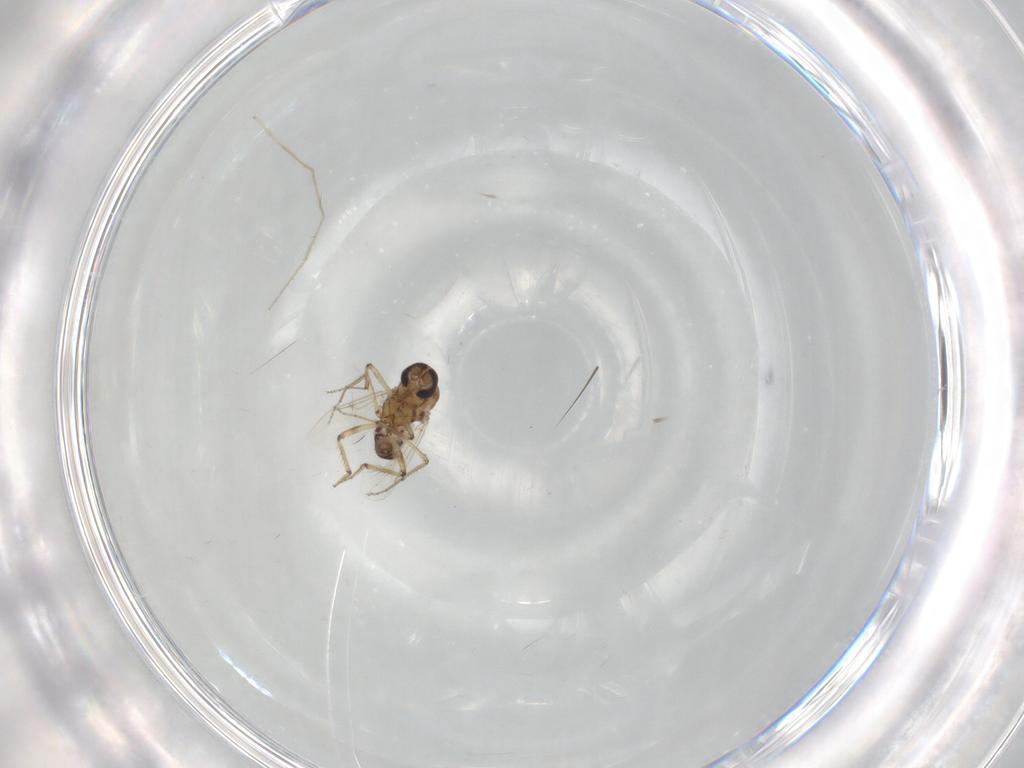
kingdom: Animalia
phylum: Arthropoda
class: Insecta
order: Diptera
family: Ceratopogonidae
